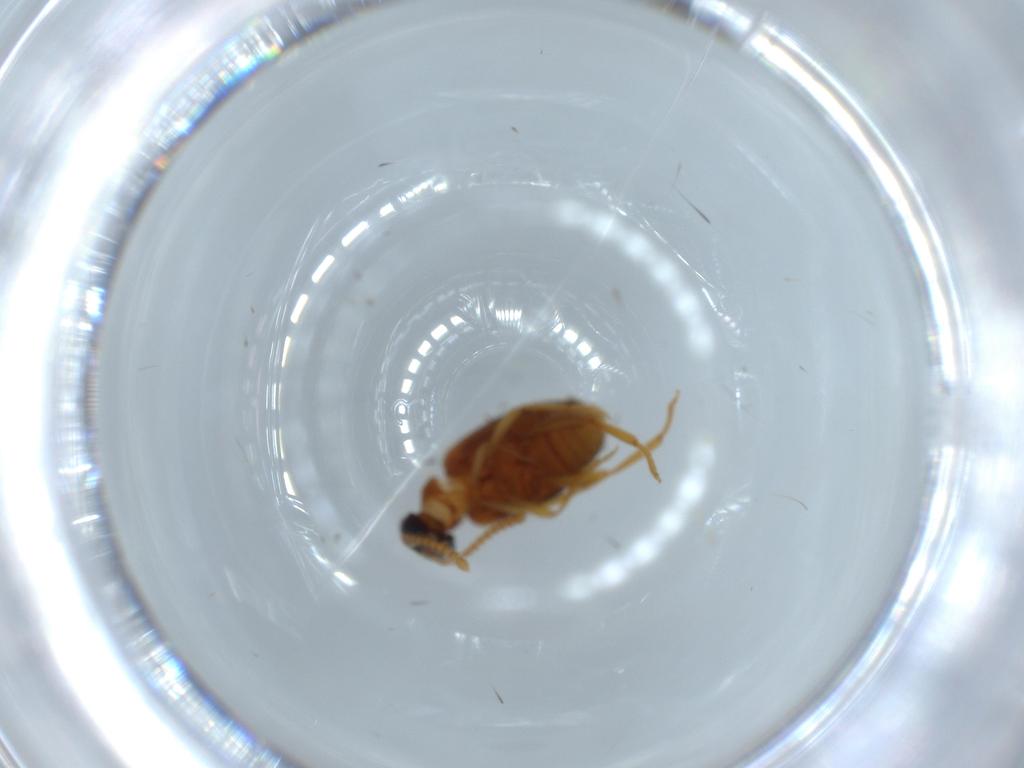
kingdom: Animalia
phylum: Arthropoda
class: Insecta
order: Coleoptera
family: Aderidae
